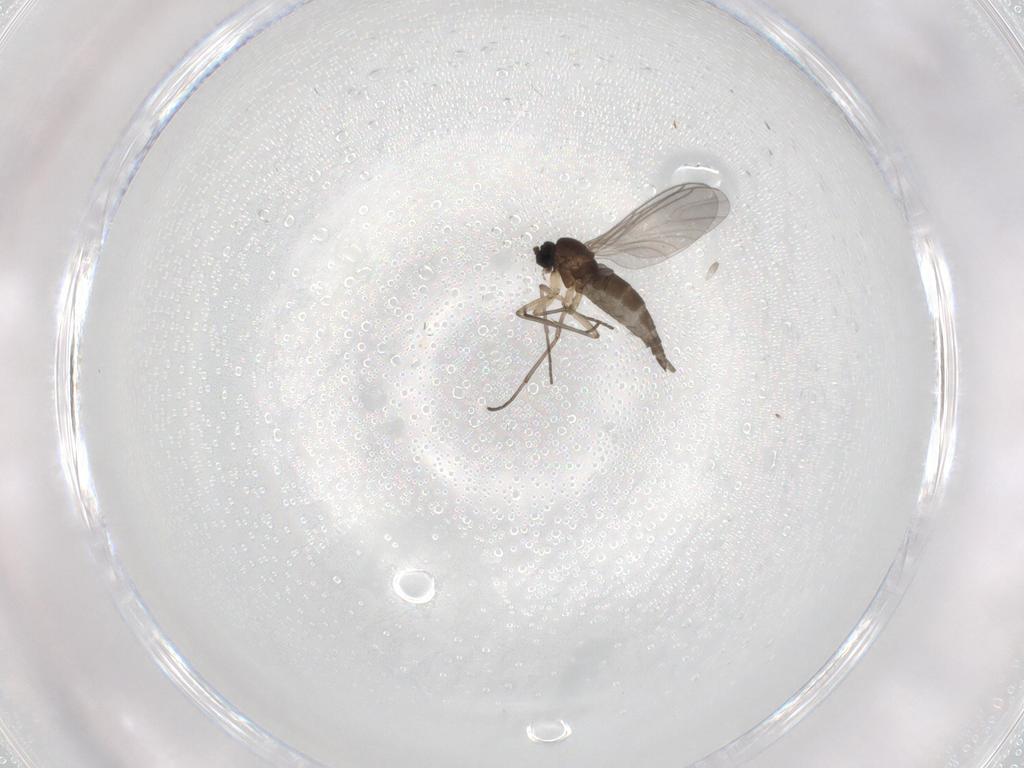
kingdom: Animalia
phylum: Arthropoda
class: Insecta
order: Diptera
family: Sciaridae
